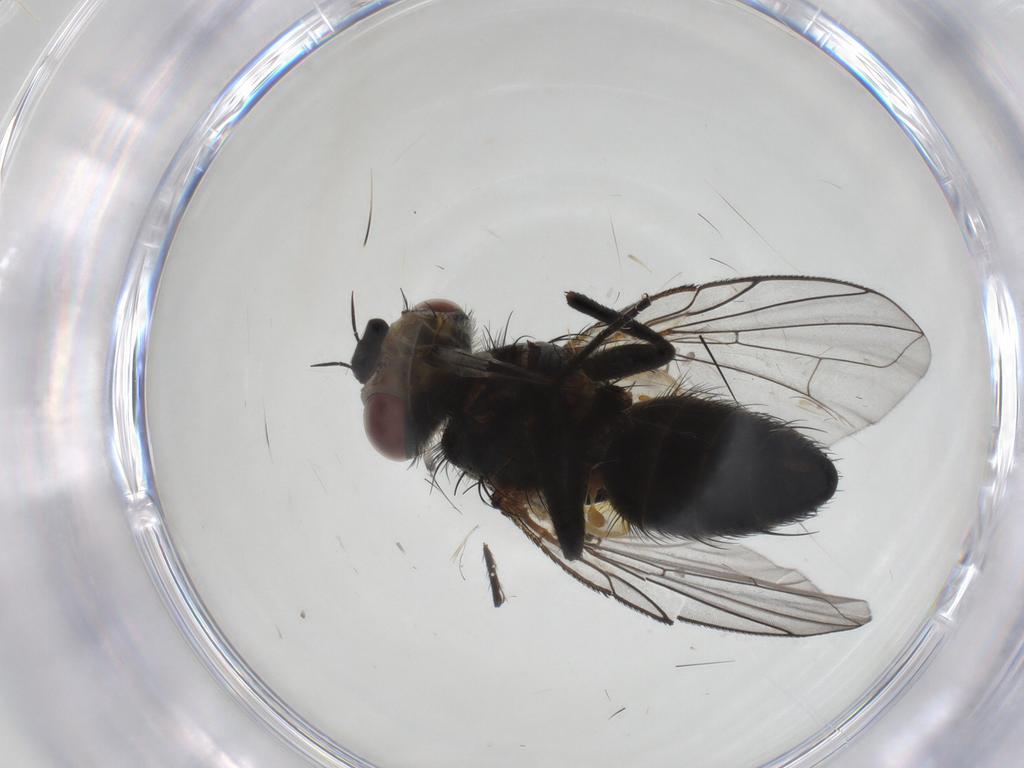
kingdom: Animalia
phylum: Arthropoda
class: Insecta
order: Diptera
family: Tachinidae
